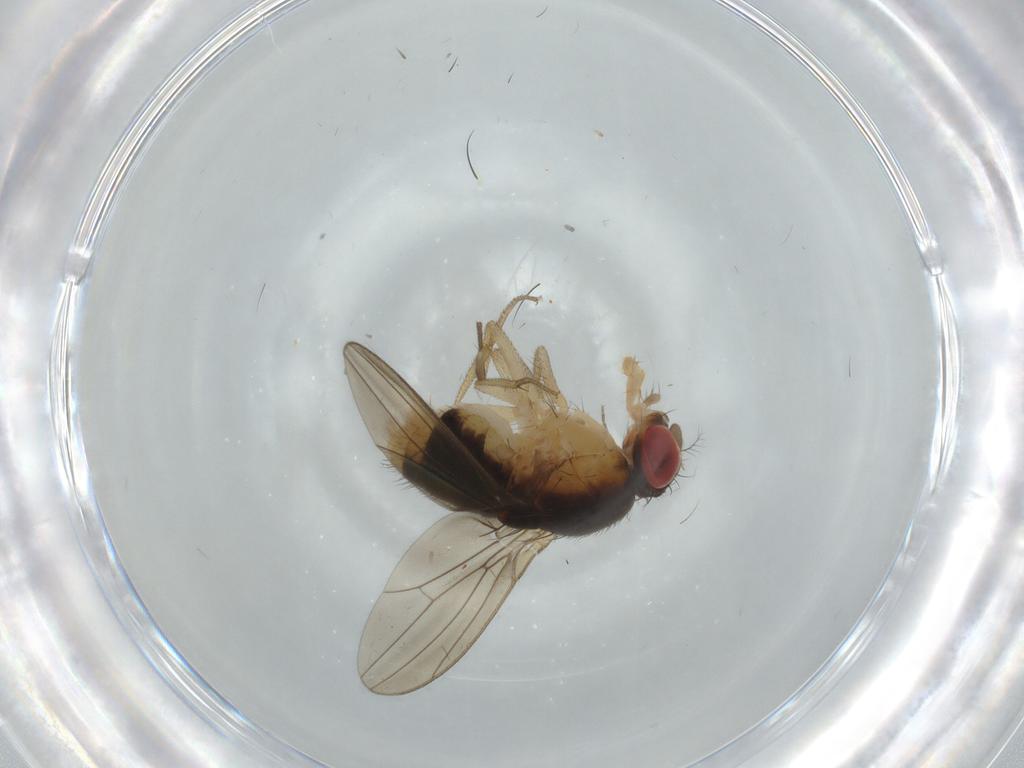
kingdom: Animalia
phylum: Arthropoda
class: Insecta
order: Diptera
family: Drosophilidae
